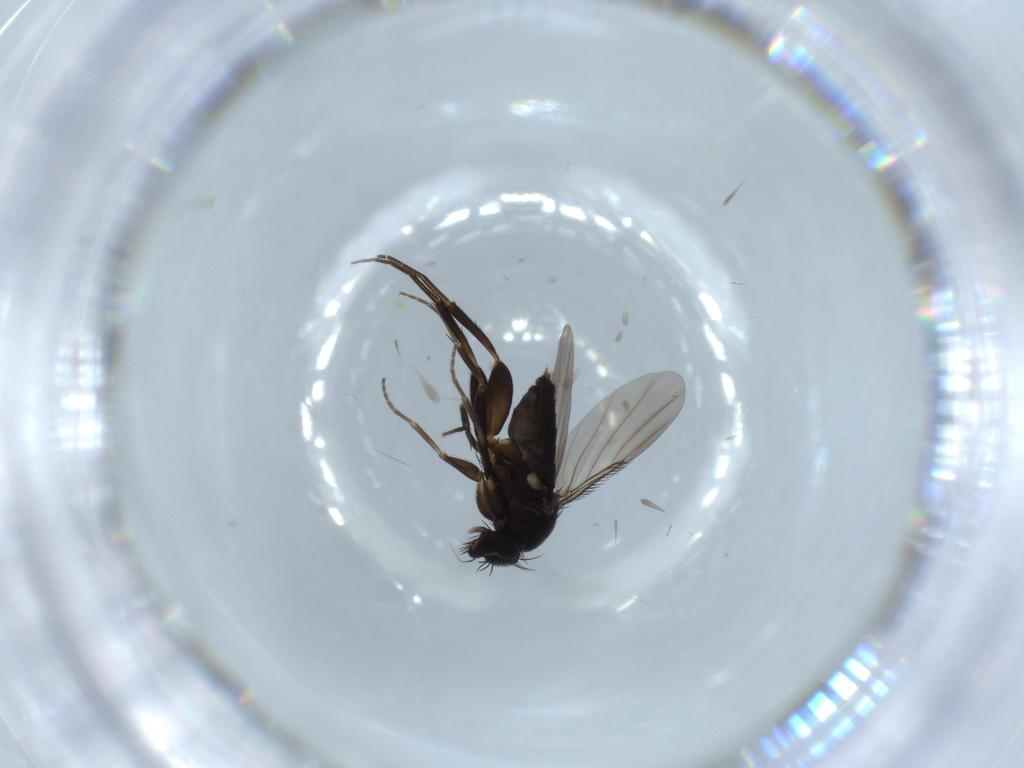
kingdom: Animalia
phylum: Arthropoda
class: Insecta
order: Diptera
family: Phoridae
